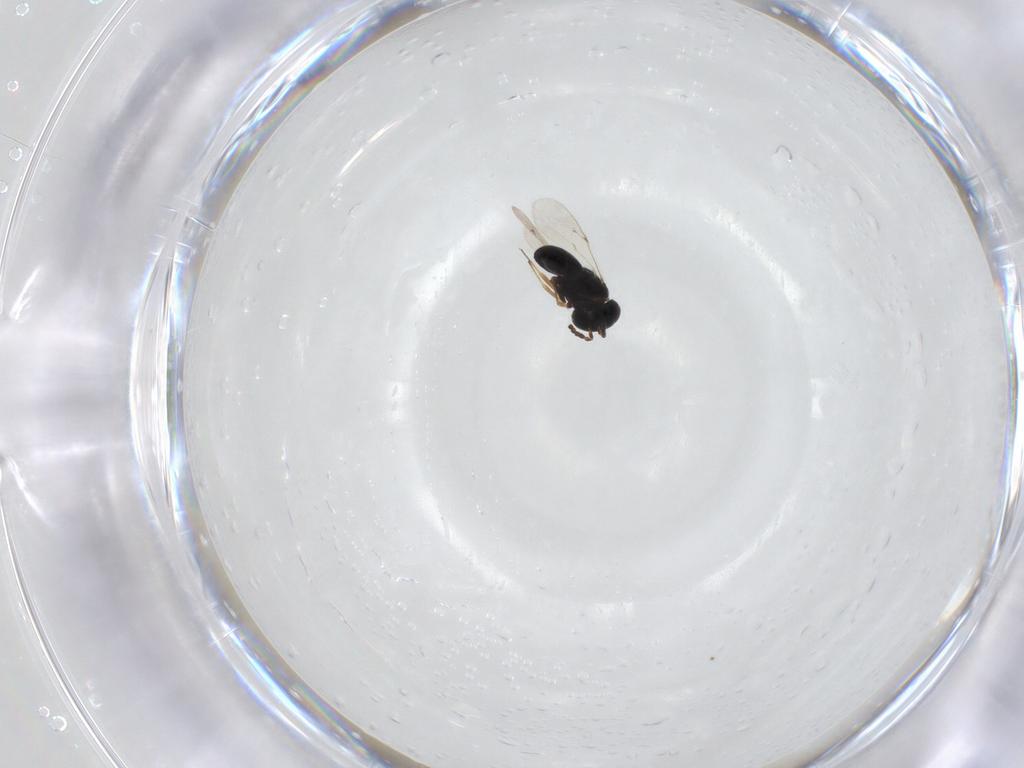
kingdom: Animalia
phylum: Arthropoda
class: Insecta
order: Hymenoptera
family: Scelionidae
